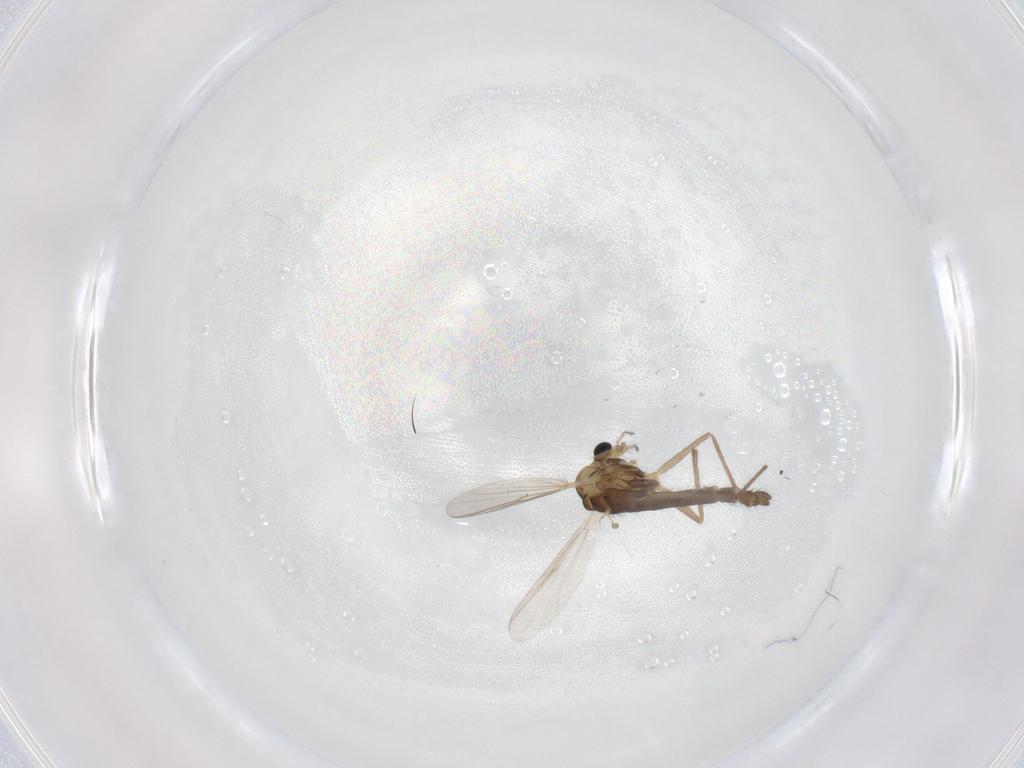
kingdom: Animalia
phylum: Arthropoda
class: Insecta
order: Diptera
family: Chironomidae
